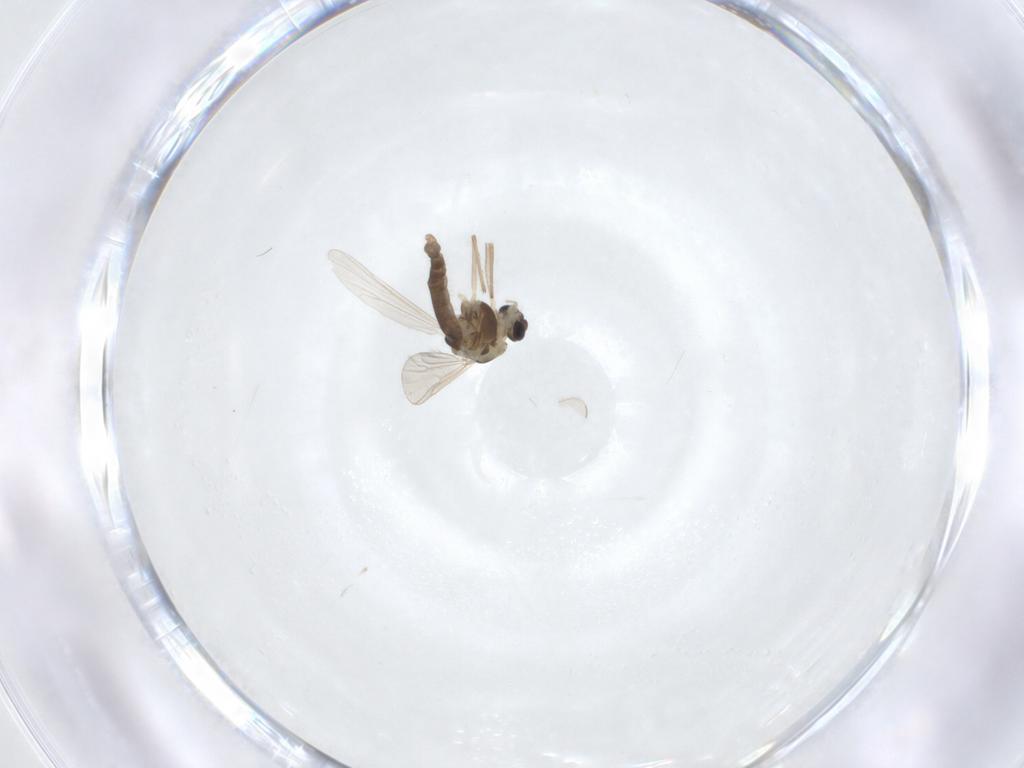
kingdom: Animalia
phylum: Arthropoda
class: Insecta
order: Diptera
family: Chironomidae
